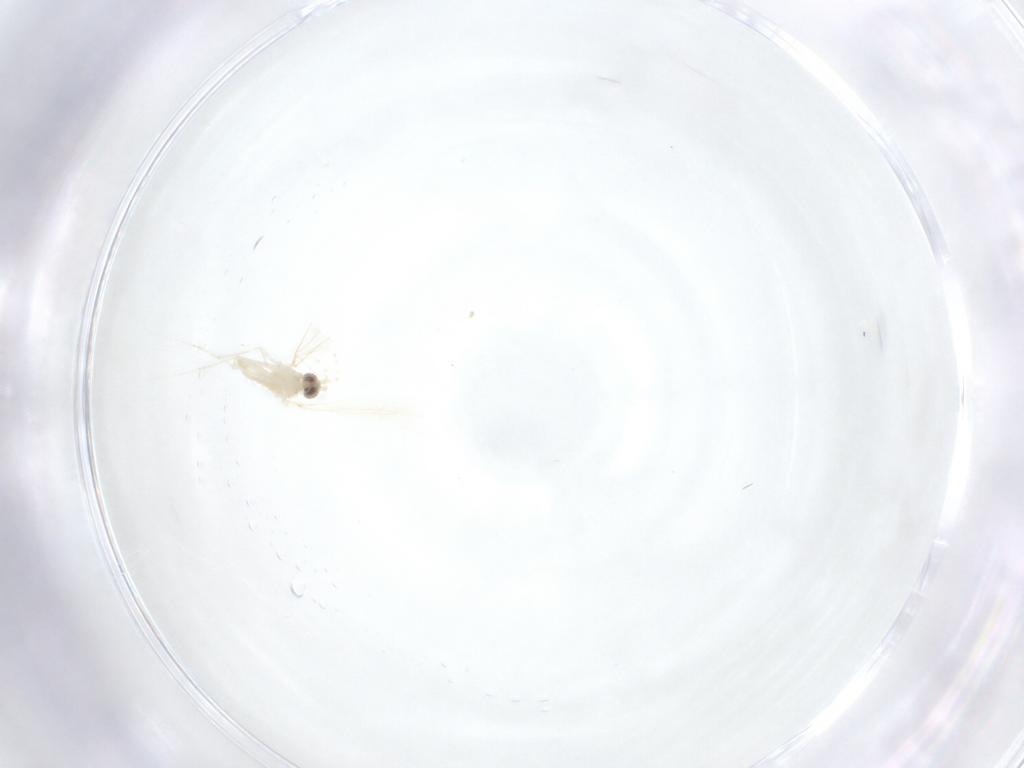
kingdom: Animalia
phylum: Arthropoda
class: Insecta
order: Diptera
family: Cecidomyiidae
